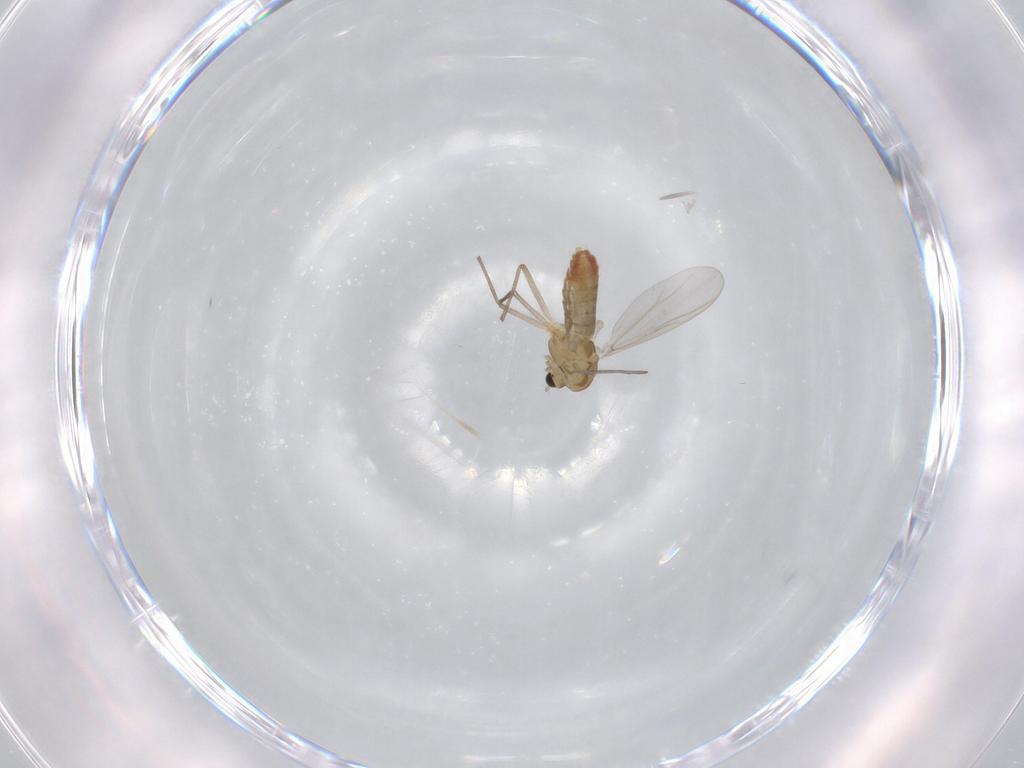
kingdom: Animalia
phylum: Arthropoda
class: Insecta
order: Diptera
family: Chironomidae
